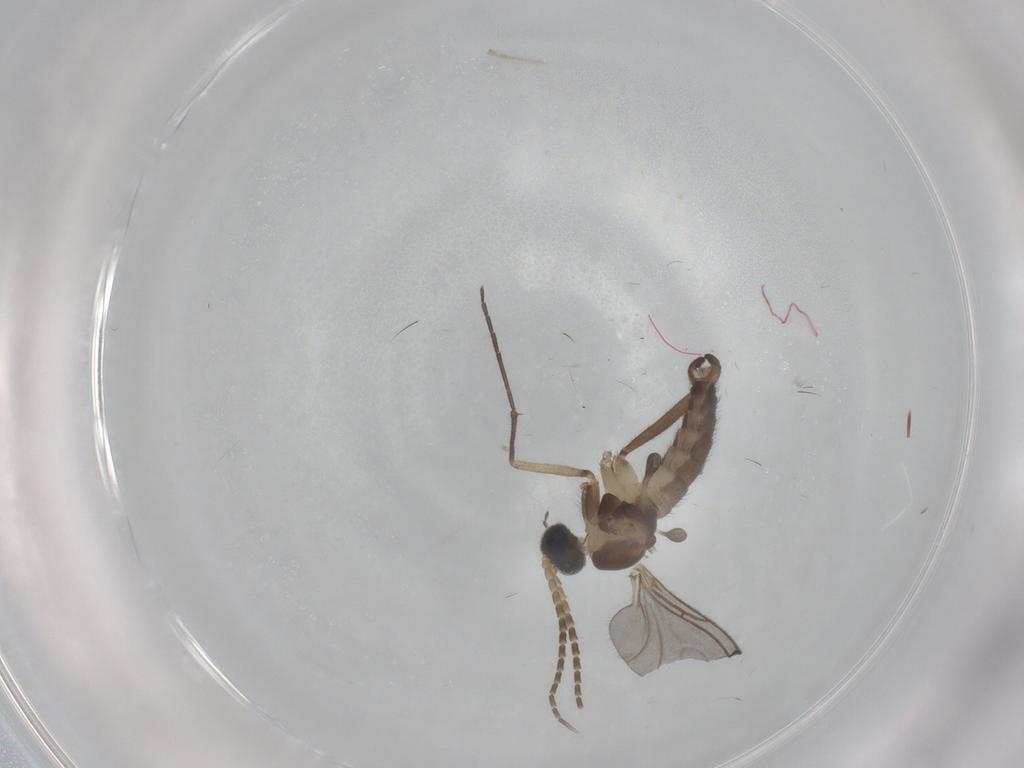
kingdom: Animalia
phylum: Arthropoda
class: Insecta
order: Diptera
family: Sciaridae
